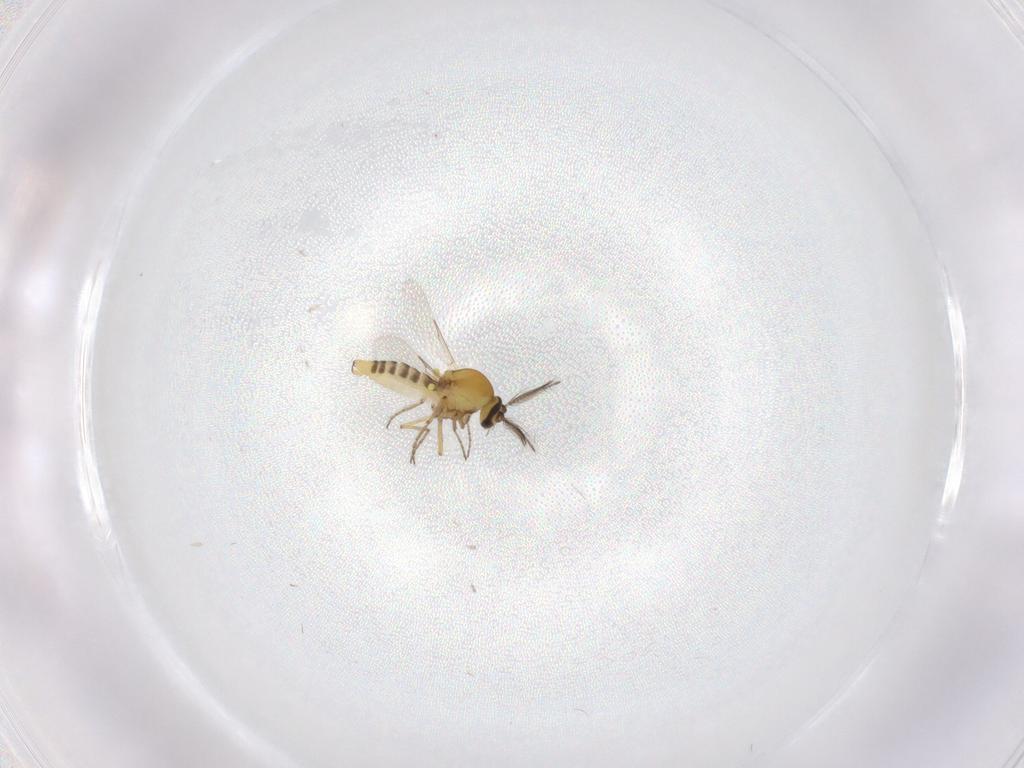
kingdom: Animalia
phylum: Arthropoda
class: Insecta
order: Diptera
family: Ceratopogonidae
